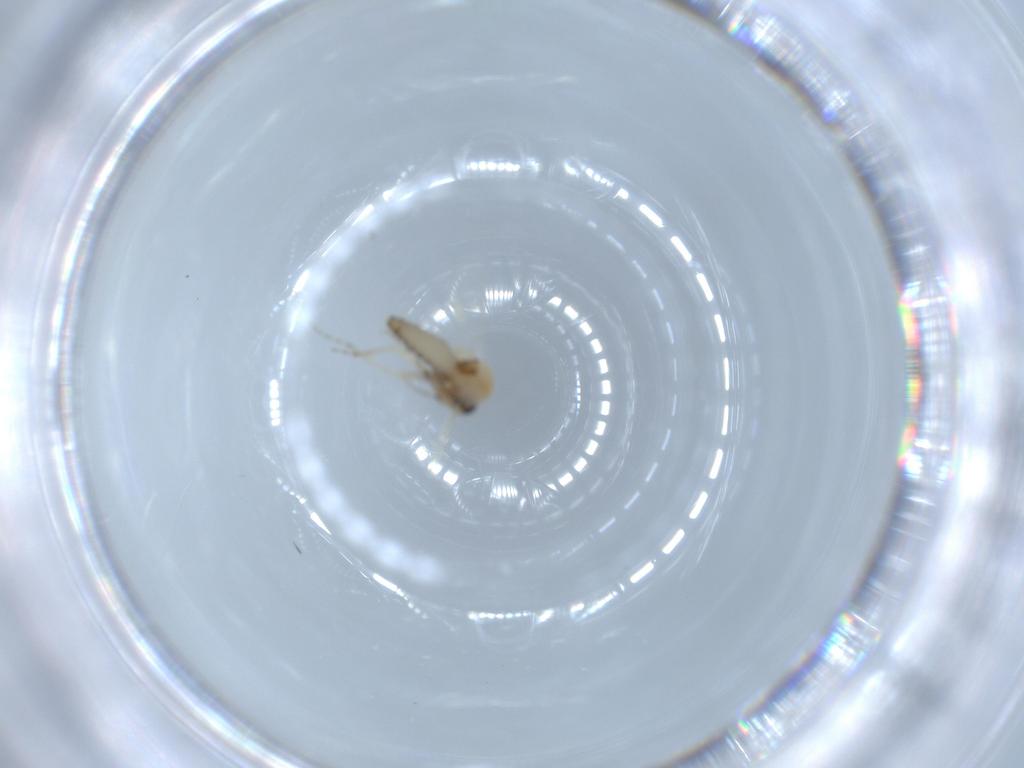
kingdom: Animalia
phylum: Arthropoda
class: Insecta
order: Diptera
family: Ceratopogonidae
